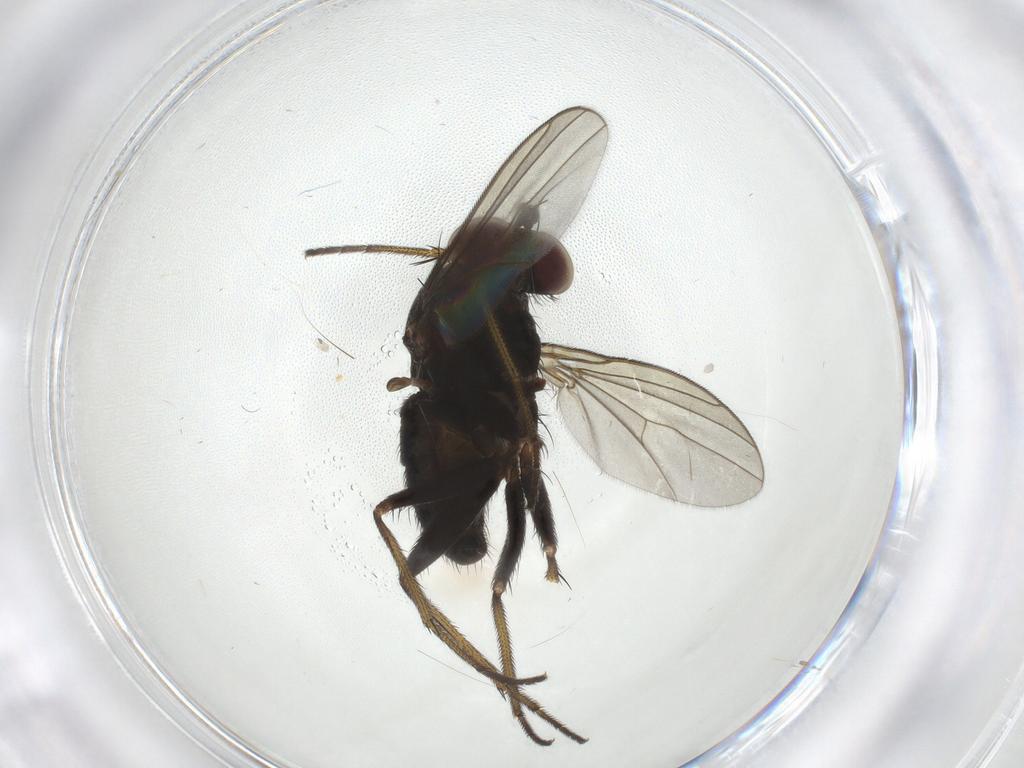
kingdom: Animalia
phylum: Arthropoda
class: Insecta
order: Diptera
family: Dolichopodidae
